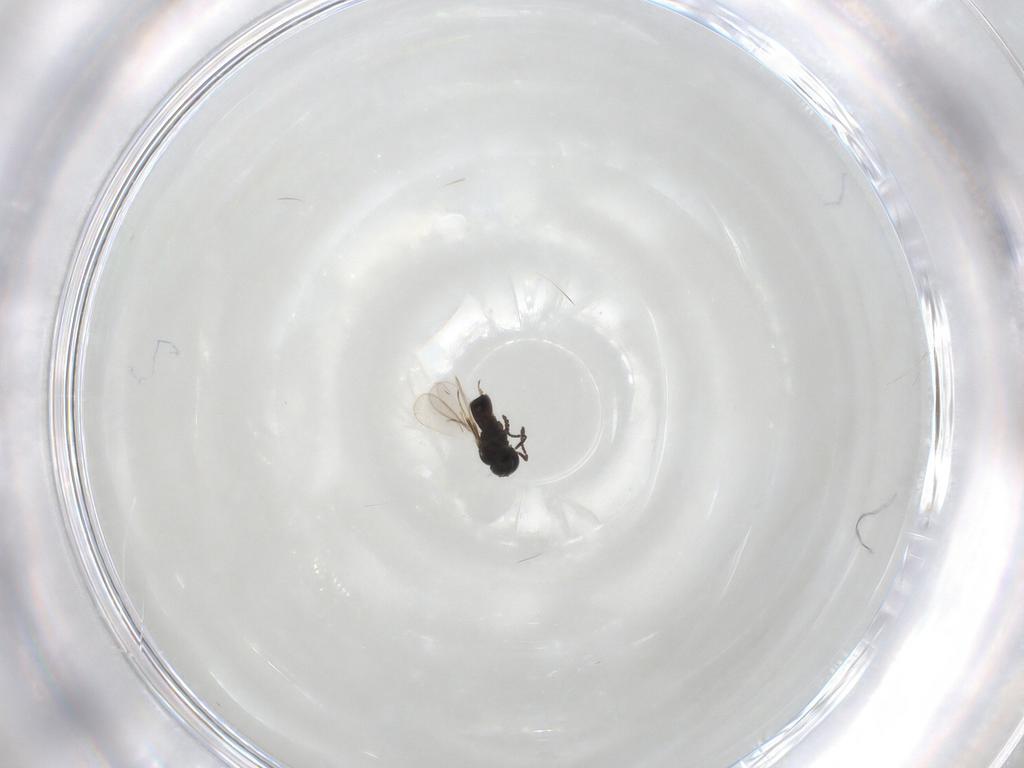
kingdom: Animalia
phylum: Arthropoda
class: Insecta
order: Hymenoptera
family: Scelionidae
